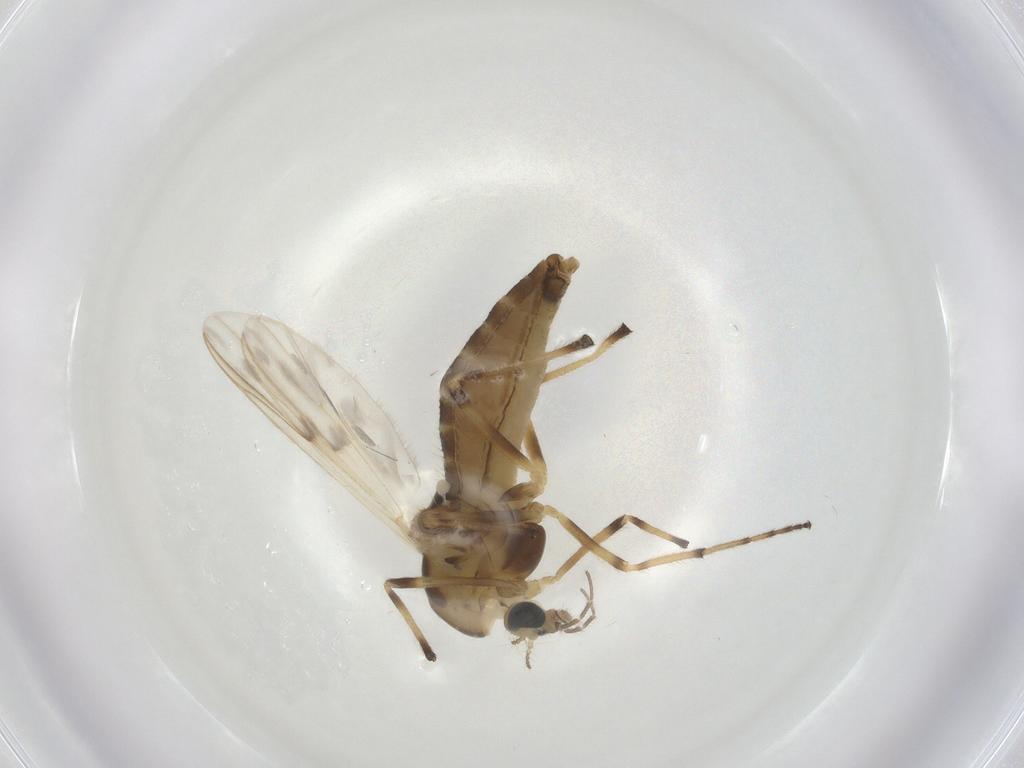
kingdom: Animalia
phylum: Arthropoda
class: Insecta
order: Diptera
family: Chironomidae
